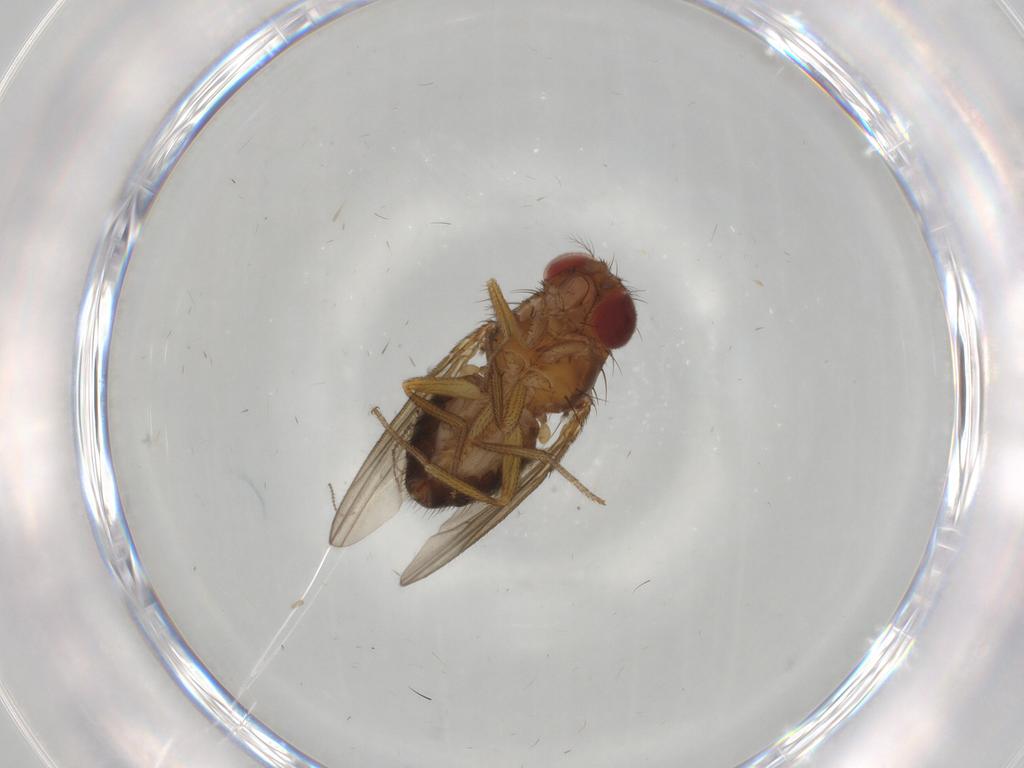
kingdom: Animalia
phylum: Arthropoda
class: Insecta
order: Diptera
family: Drosophilidae
